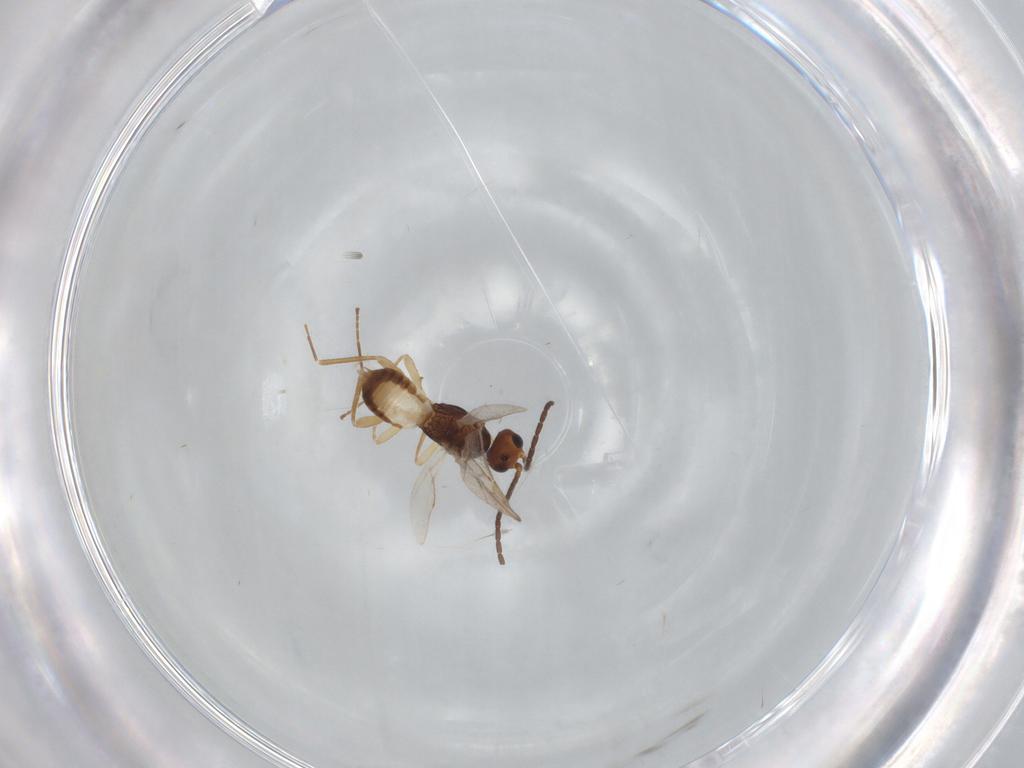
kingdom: Animalia
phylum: Arthropoda
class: Insecta
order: Hymenoptera
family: Braconidae
